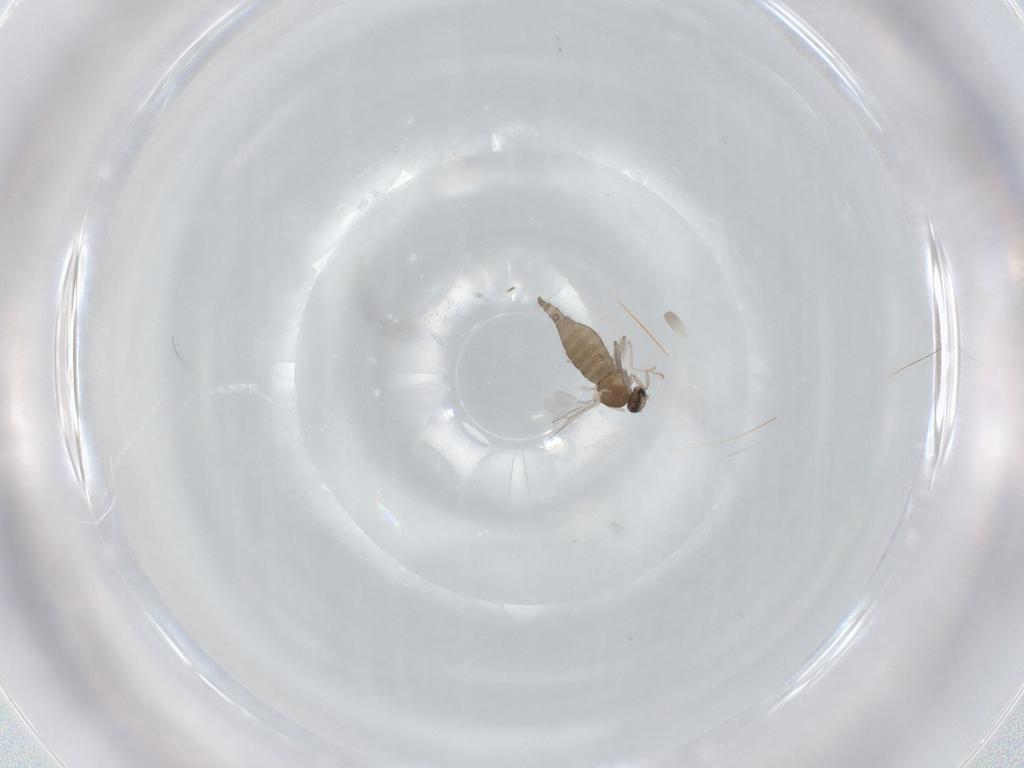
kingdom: Animalia
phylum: Arthropoda
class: Insecta
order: Diptera
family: Cecidomyiidae
